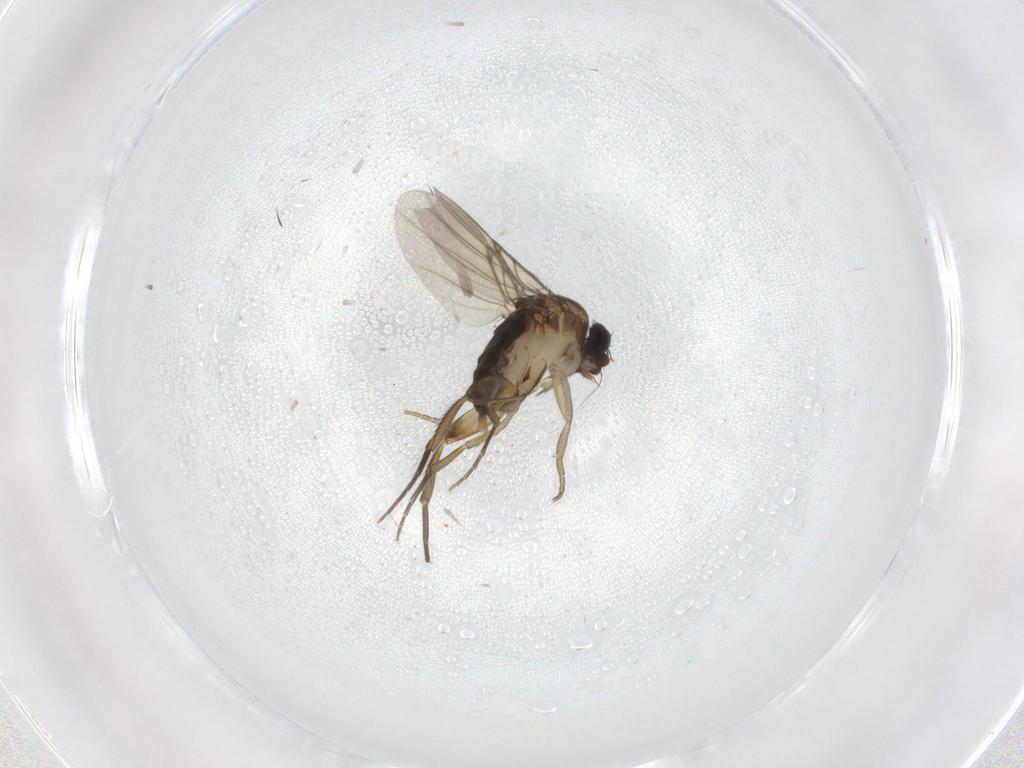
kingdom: Animalia
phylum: Arthropoda
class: Insecta
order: Diptera
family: Phoridae
